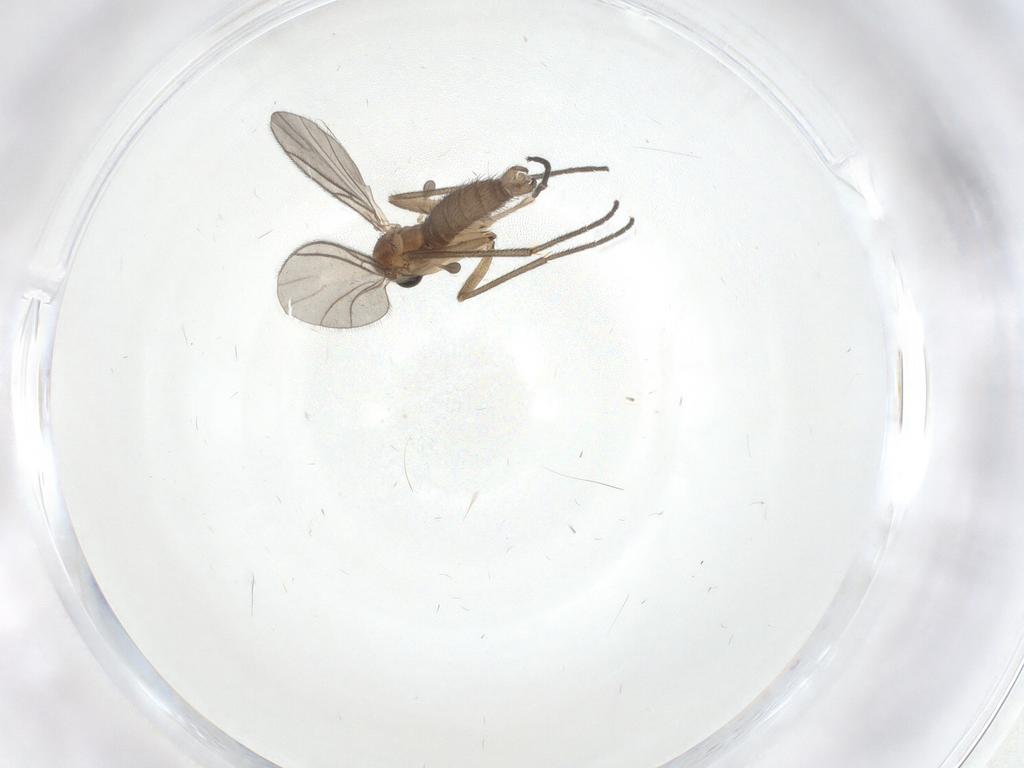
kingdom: Animalia
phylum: Arthropoda
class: Insecta
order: Diptera
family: Sciaridae
